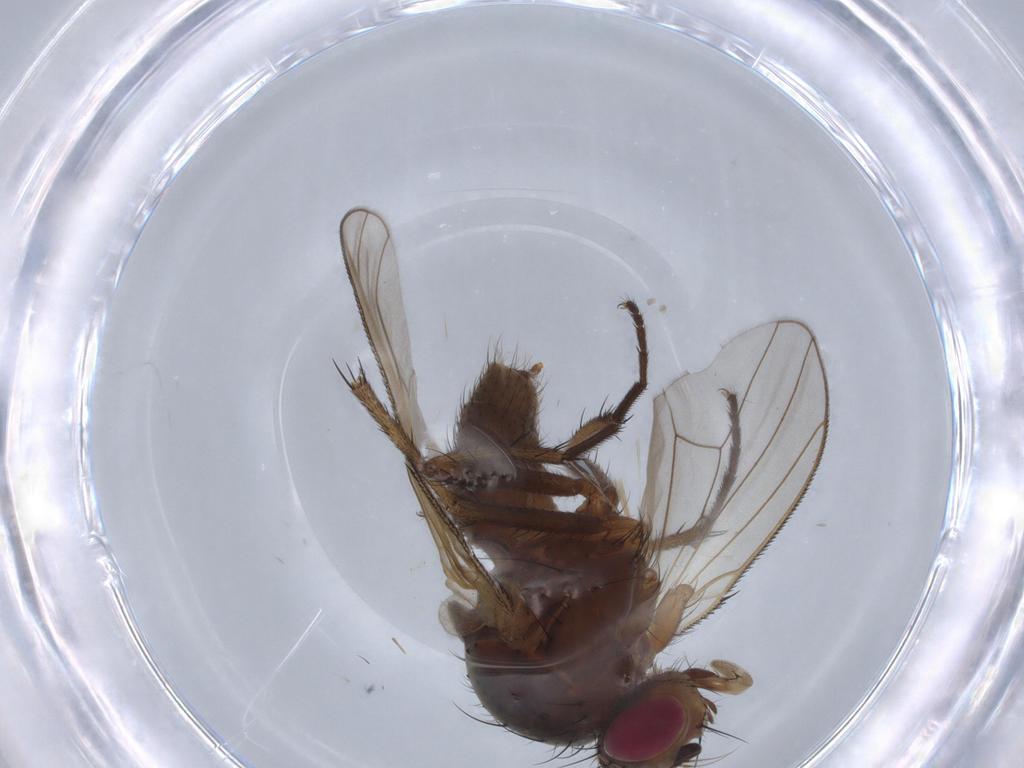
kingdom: Animalia
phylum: Arthropoda
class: Insecta
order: Diptera
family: Anthomyiidae
